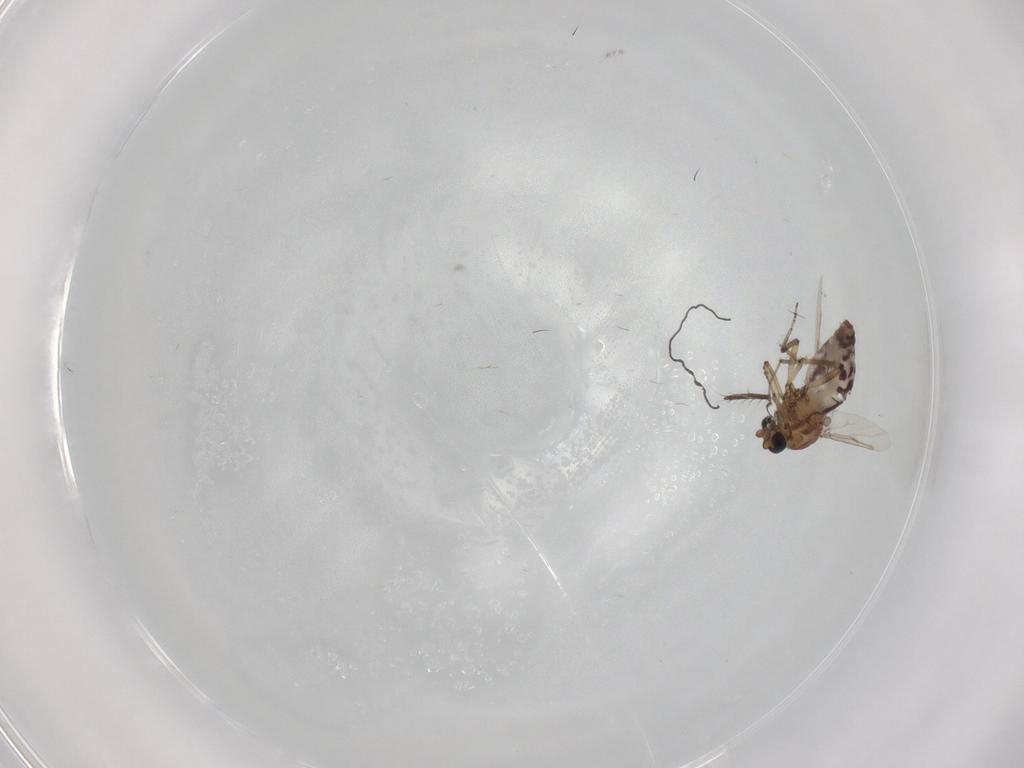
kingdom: Animalia
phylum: Arthropoda
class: Insecta
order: Diptera
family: Ceratopogonidae
